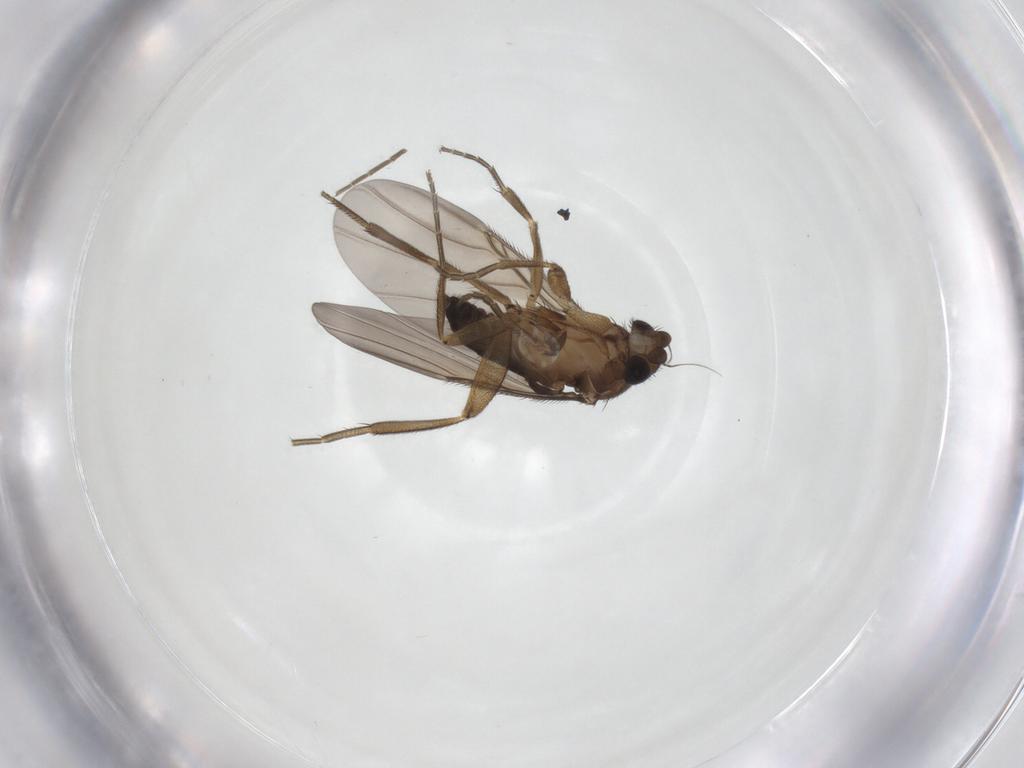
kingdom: Animalia
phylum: Arthropoda
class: Insecta
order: Diptera
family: Phoridae
